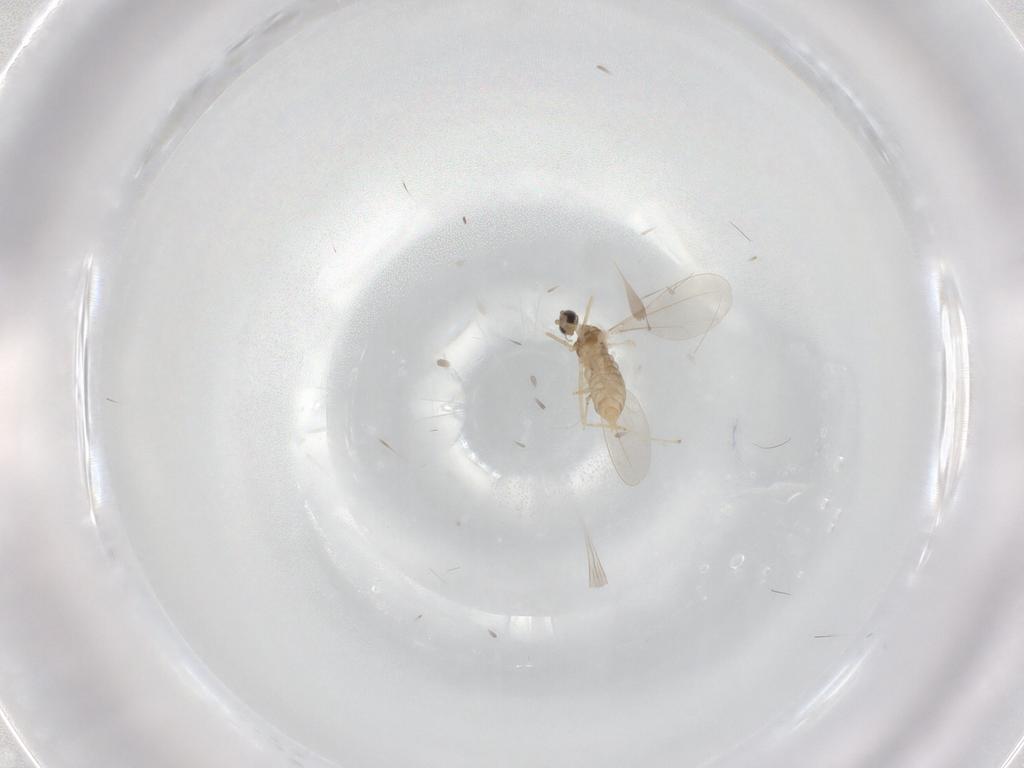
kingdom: Animalia
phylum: Arthropoda
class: Insecta
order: Diptera
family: Cecidomyiidae
